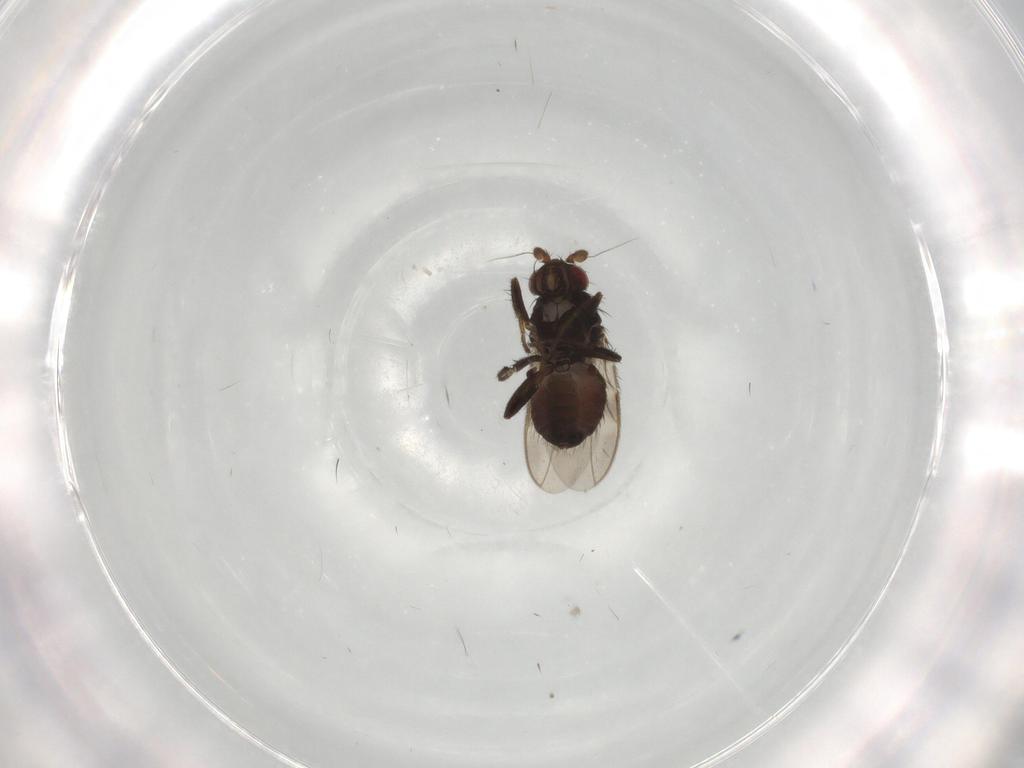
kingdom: Animalia
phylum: Arthropoda
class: Insecta
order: Diptera
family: Sphaeroceridae
